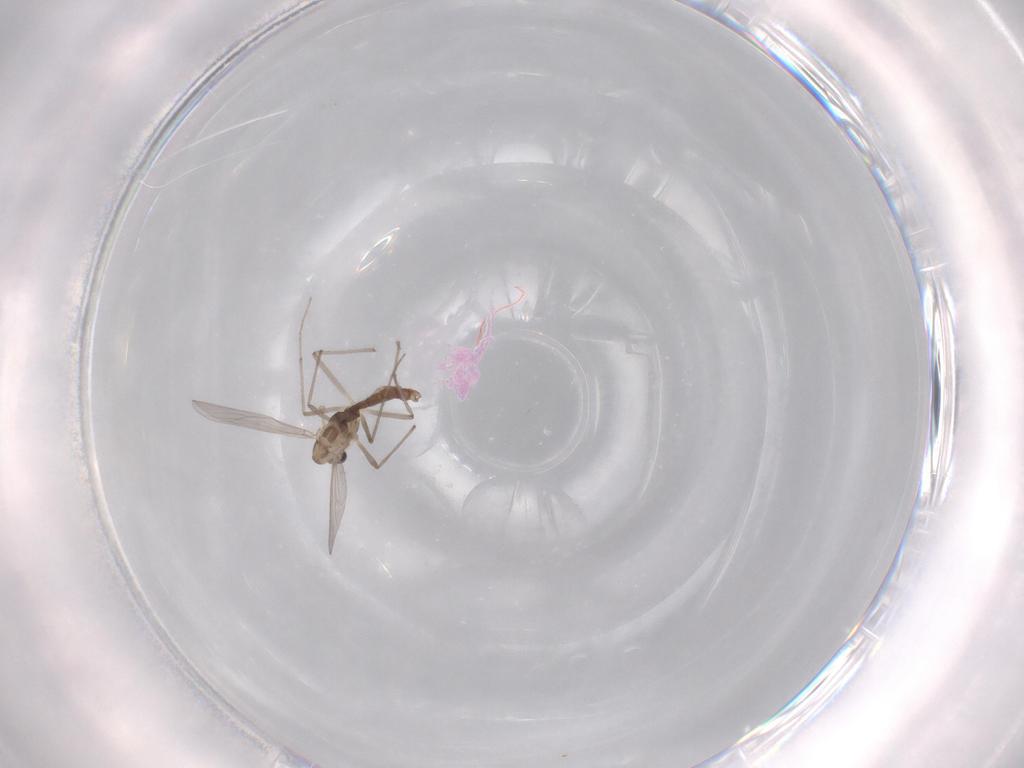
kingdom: Animalia
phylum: Arthropoda
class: Insecta
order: Diptera
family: Chironomidae
